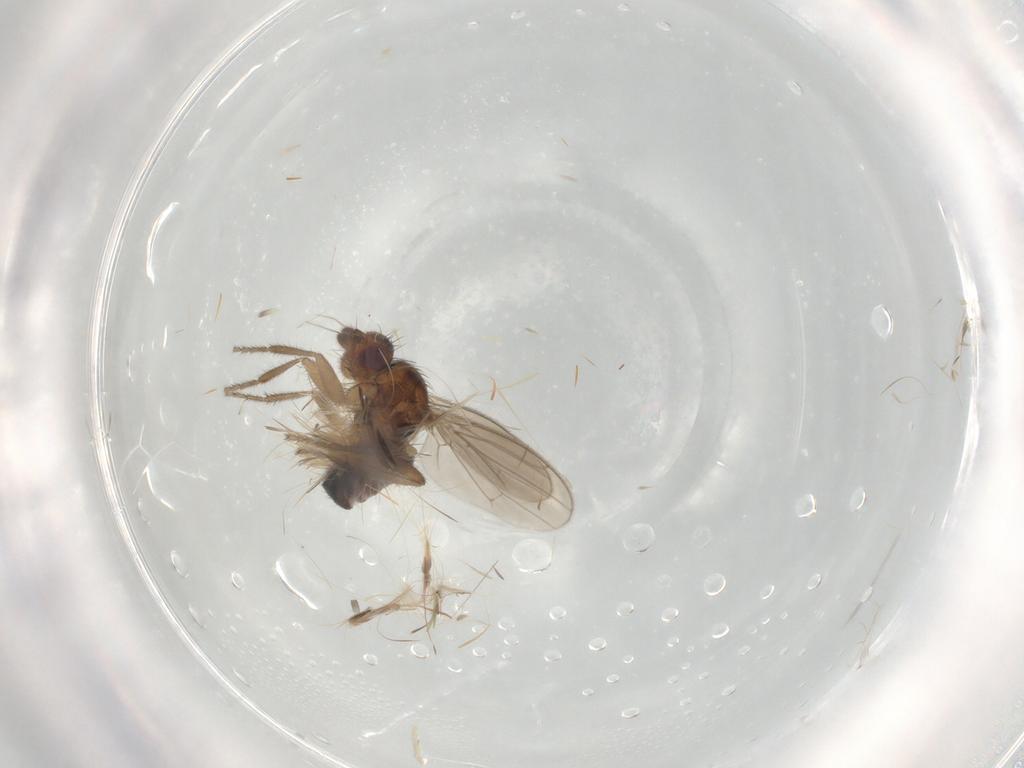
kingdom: Animalia
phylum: Arthropoda
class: Insecta
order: Diptera
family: Sphaeroceridae
